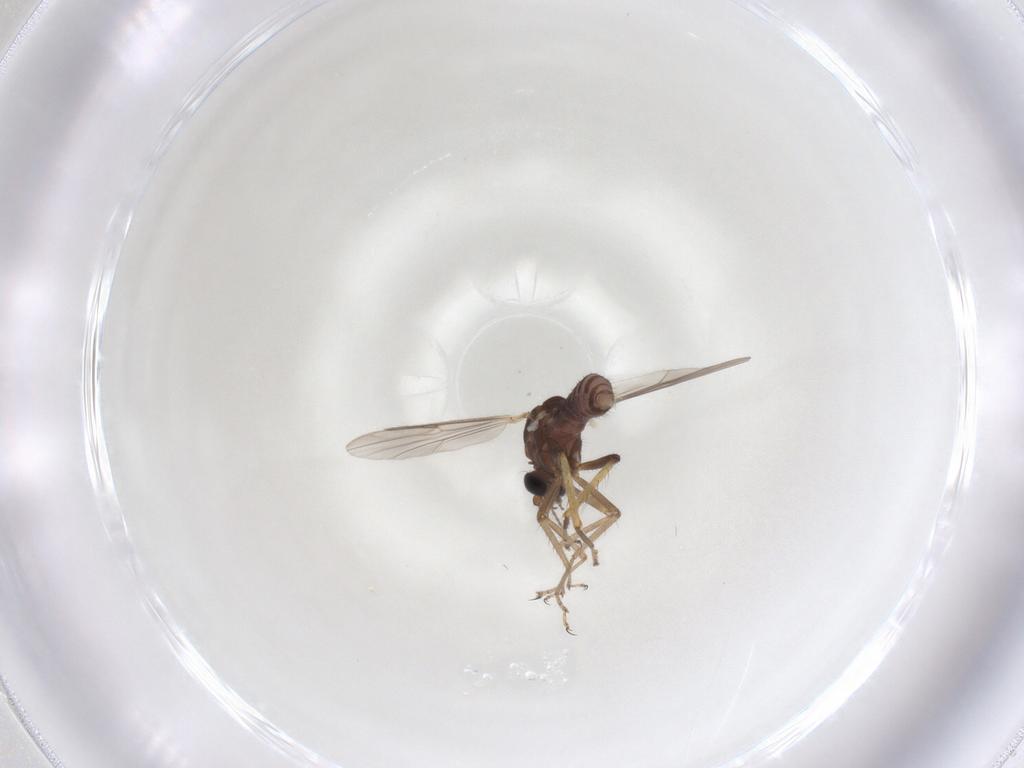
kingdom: Animalia
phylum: Arthropoda
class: Insecta
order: Diptera
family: Ceratopogonidae
